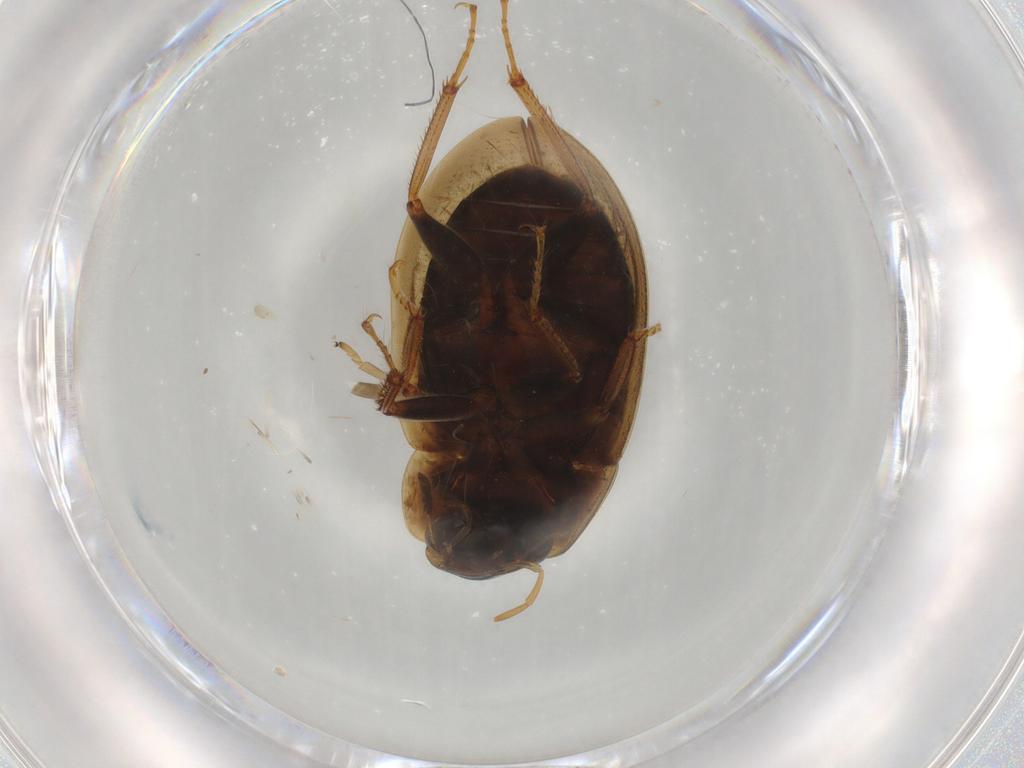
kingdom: Animalia
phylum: Arthropoda
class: Insecta
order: Coleoptera
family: Hydrophilidae
